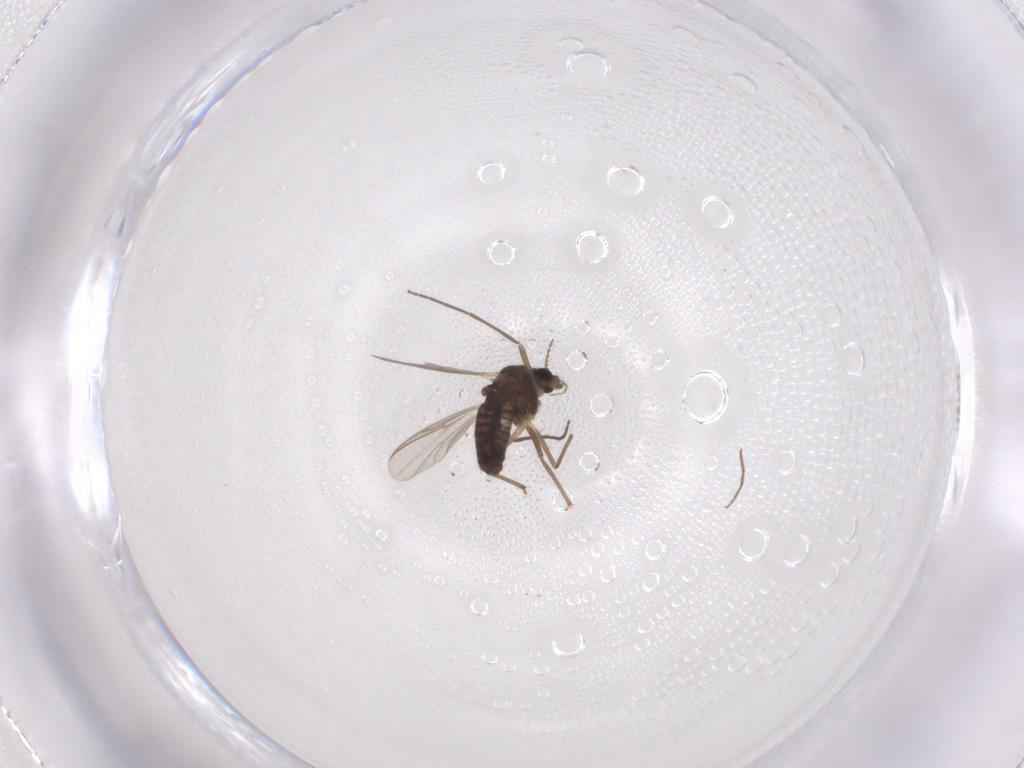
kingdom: Animalia
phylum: Arthropoda
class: Insecta
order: Diptera
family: Chironomidae
